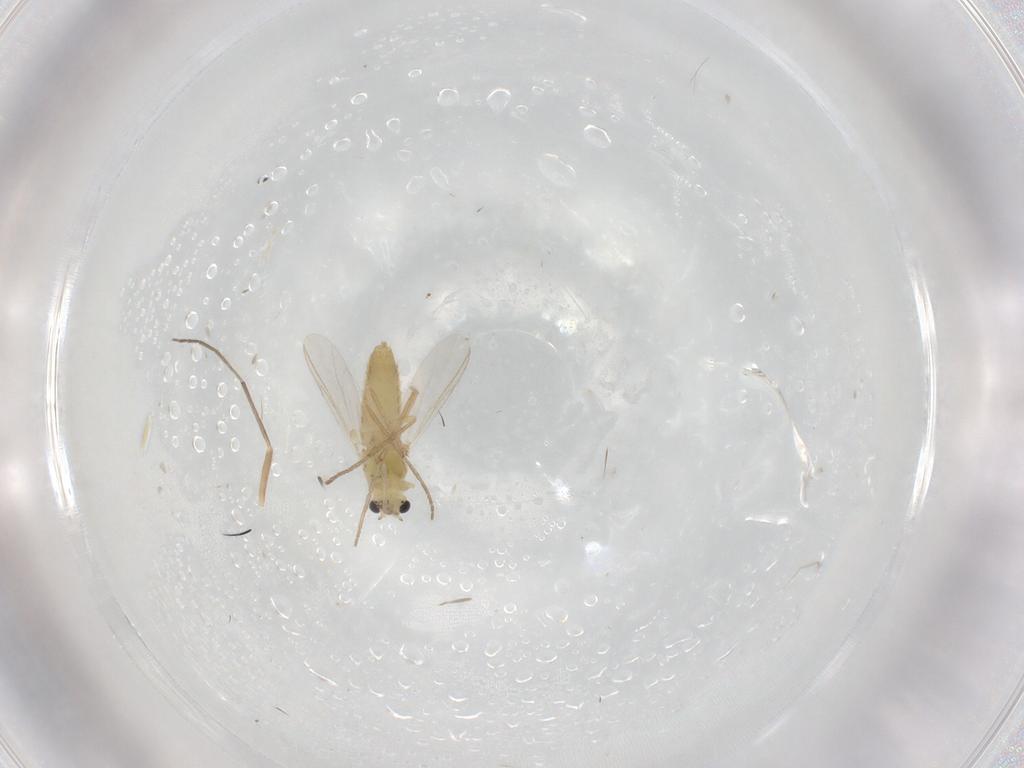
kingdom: Animalia
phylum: Arthropoda
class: Insecta
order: Diptera
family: Chironomidae
